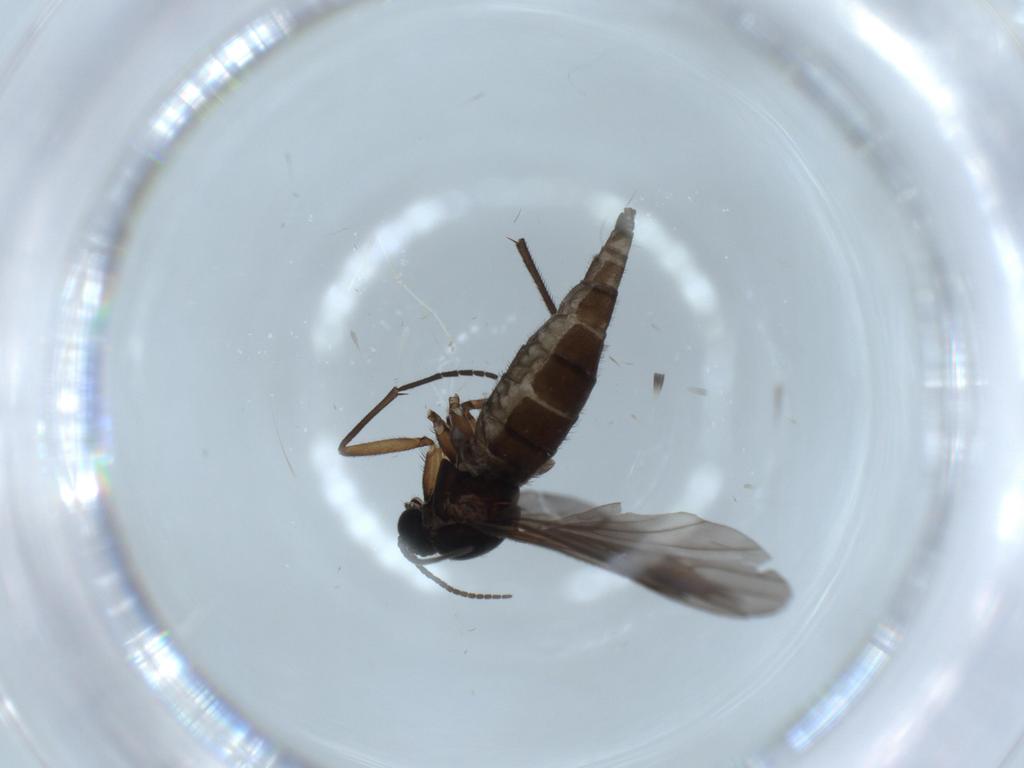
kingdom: Animalia
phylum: Arthropoda
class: Insecta
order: Diptera
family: Sciaridae
